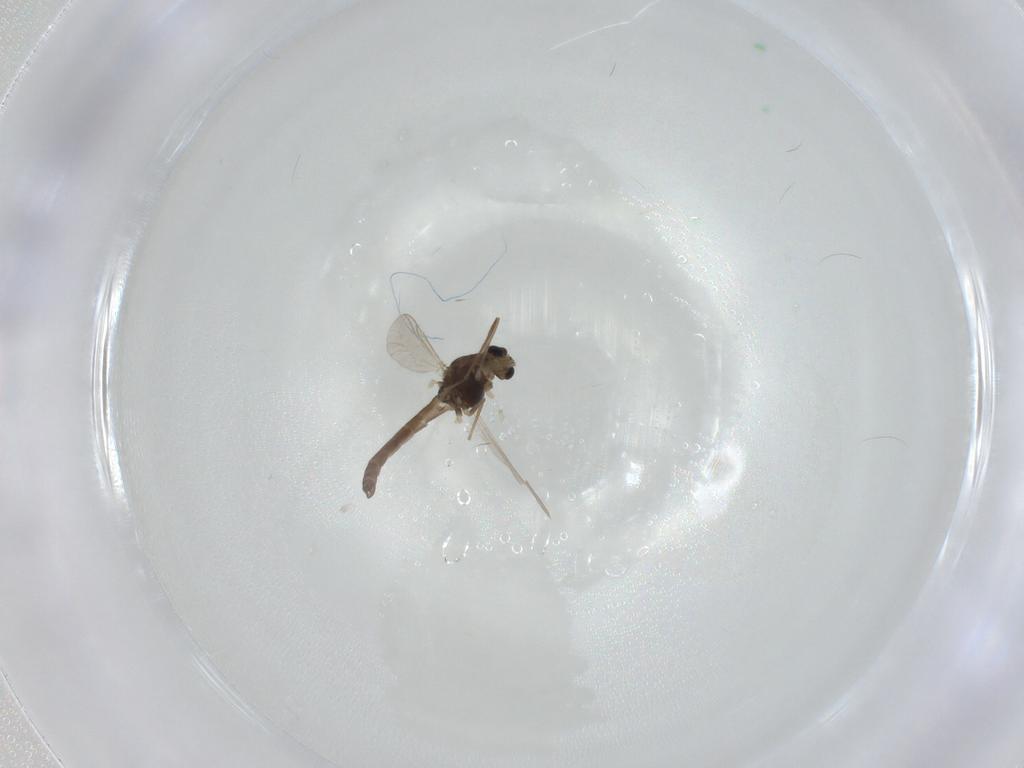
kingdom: Animalia
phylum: Arthropoda
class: Insecta
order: Diptera
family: Chironomidae
